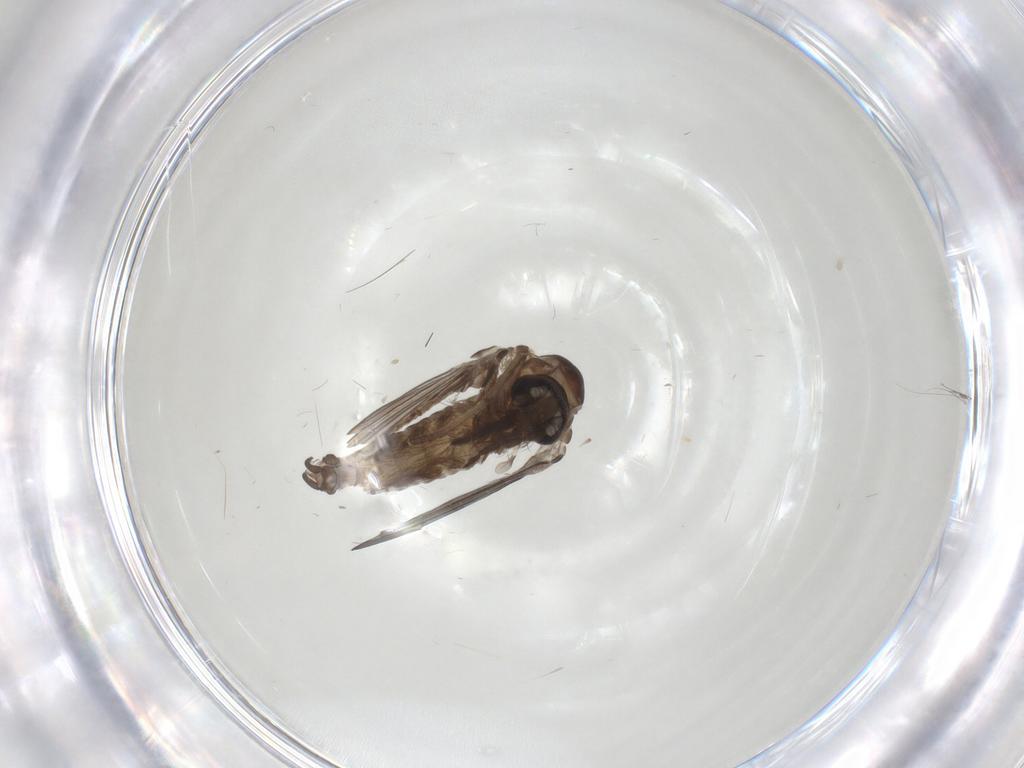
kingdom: Animalia
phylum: Arthropoda
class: Insecta
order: Diptera
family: Psychodidae
